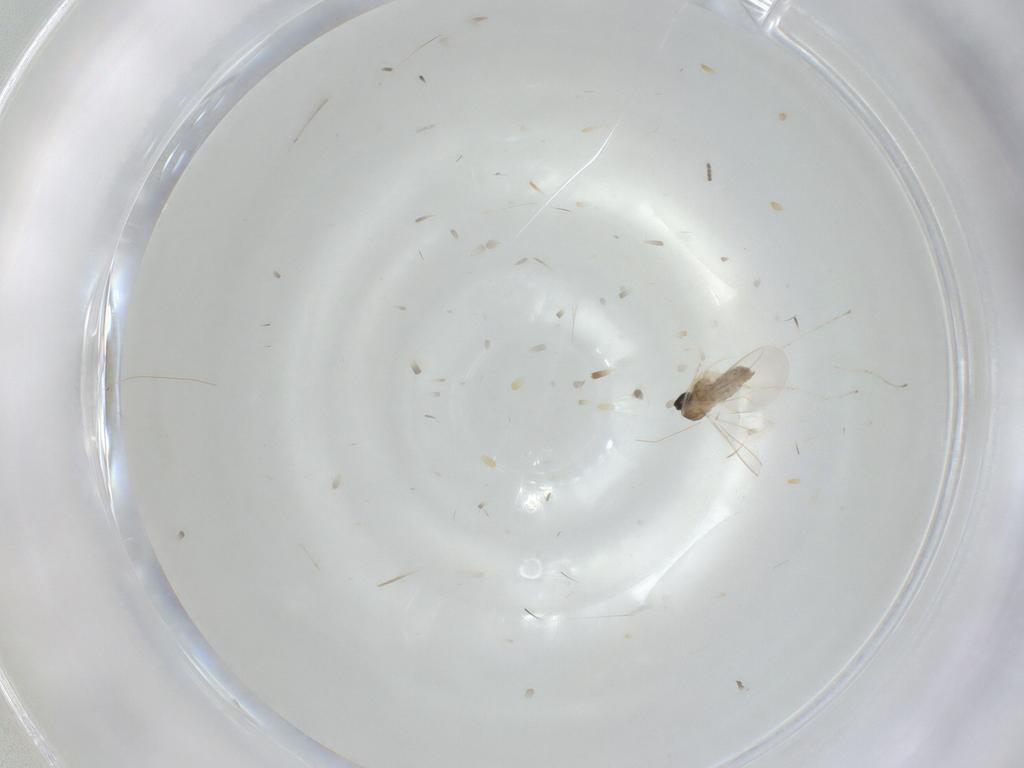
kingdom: Animalia
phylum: Arthropoda
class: Insecta
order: Diptera
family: Cecidomyiidae
